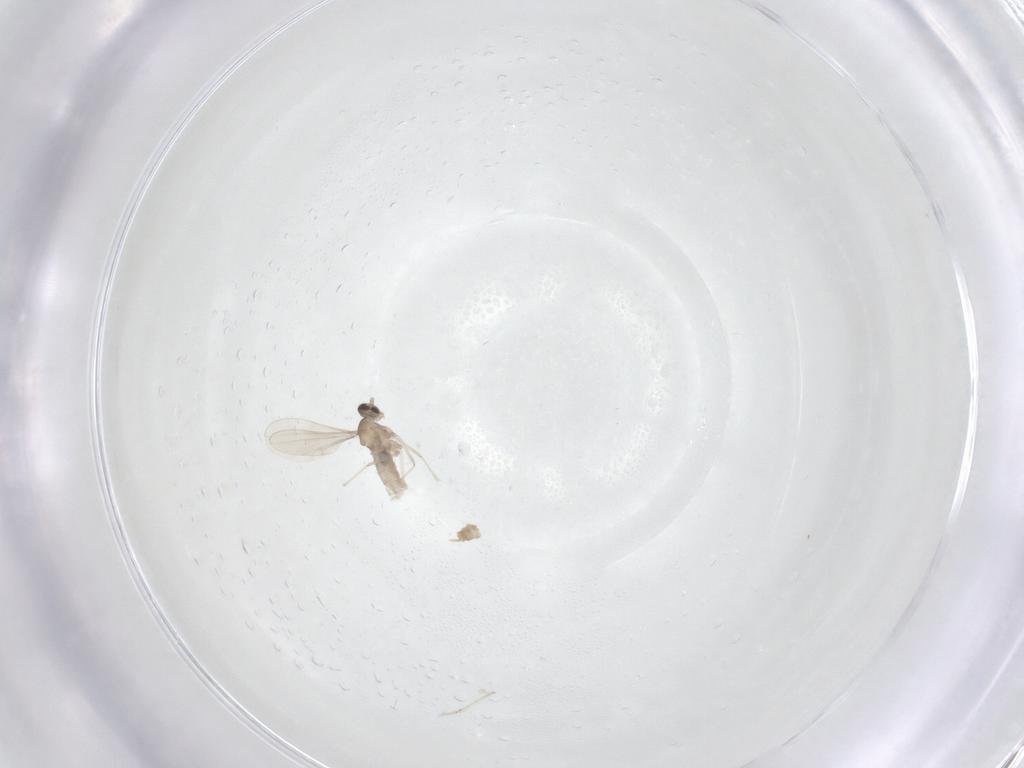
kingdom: Animalia
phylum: Arthropoda
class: Insecta
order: Diptera
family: Cecidomyiidae
